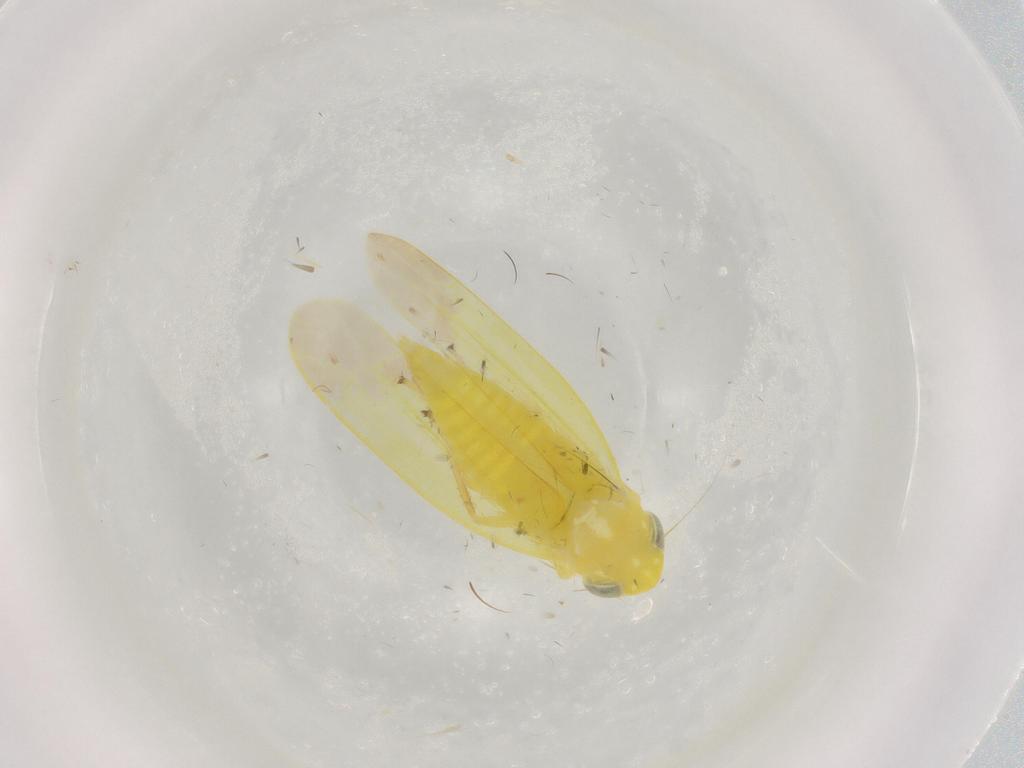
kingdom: Animalia
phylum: Arthropoda
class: Insecta
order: Hemiptera
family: Cicadellidae
